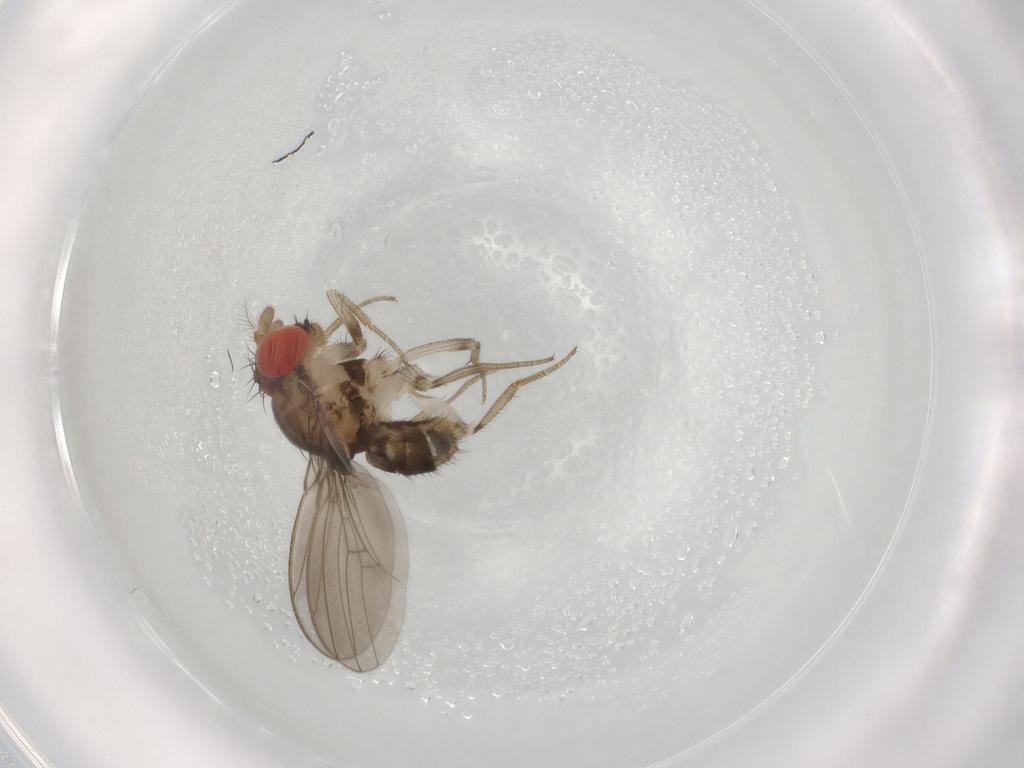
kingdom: Animalia
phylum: Arthropoda
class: Insecta
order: Diptera
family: Drosophilidae
